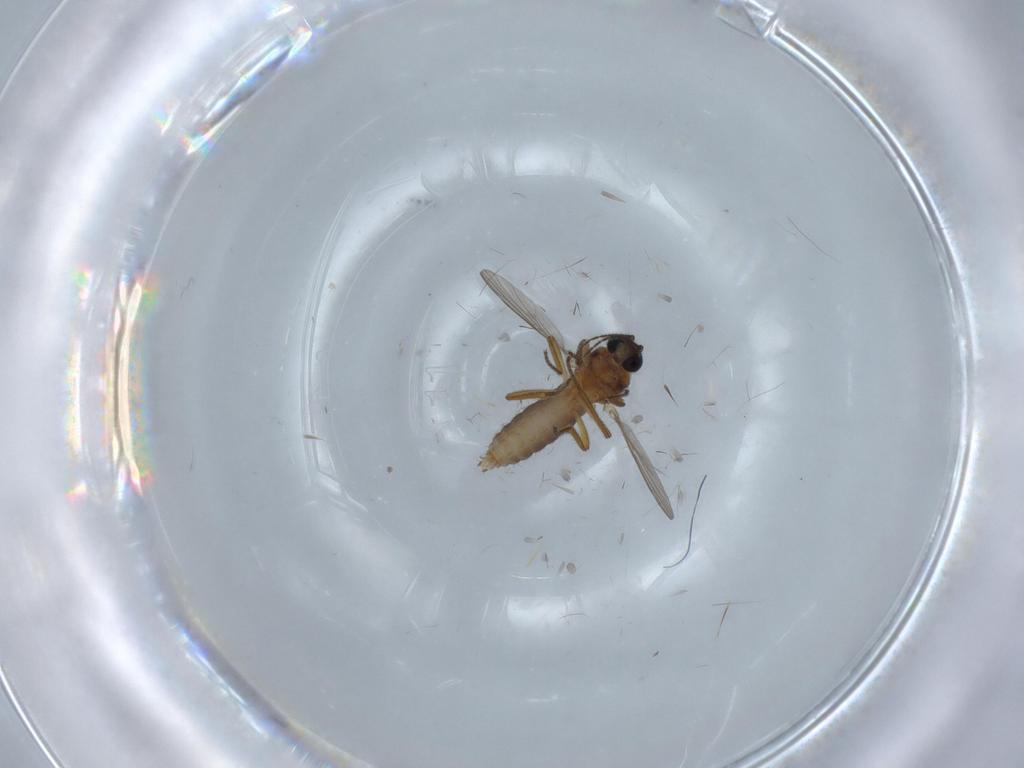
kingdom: Animalia
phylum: Arthropoda
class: Insecta
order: Diptera
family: Ceratopogonidae
